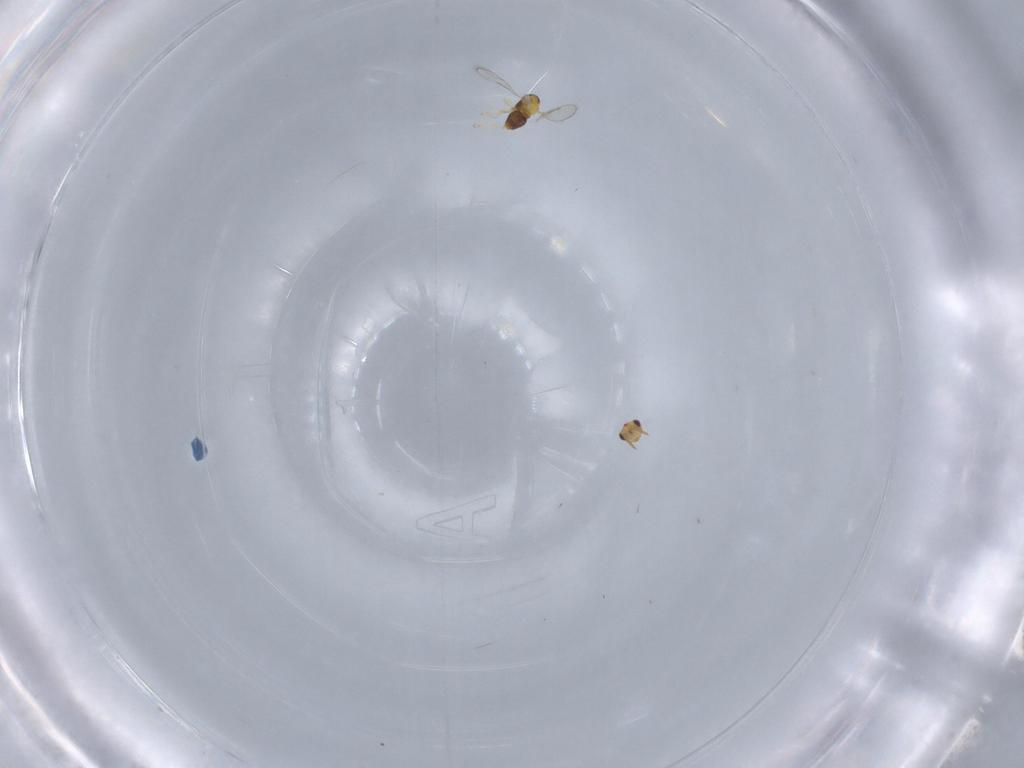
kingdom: Animalia
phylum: Arthropoda
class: Insecta
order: Hymenoptera
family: Aphelinidae
